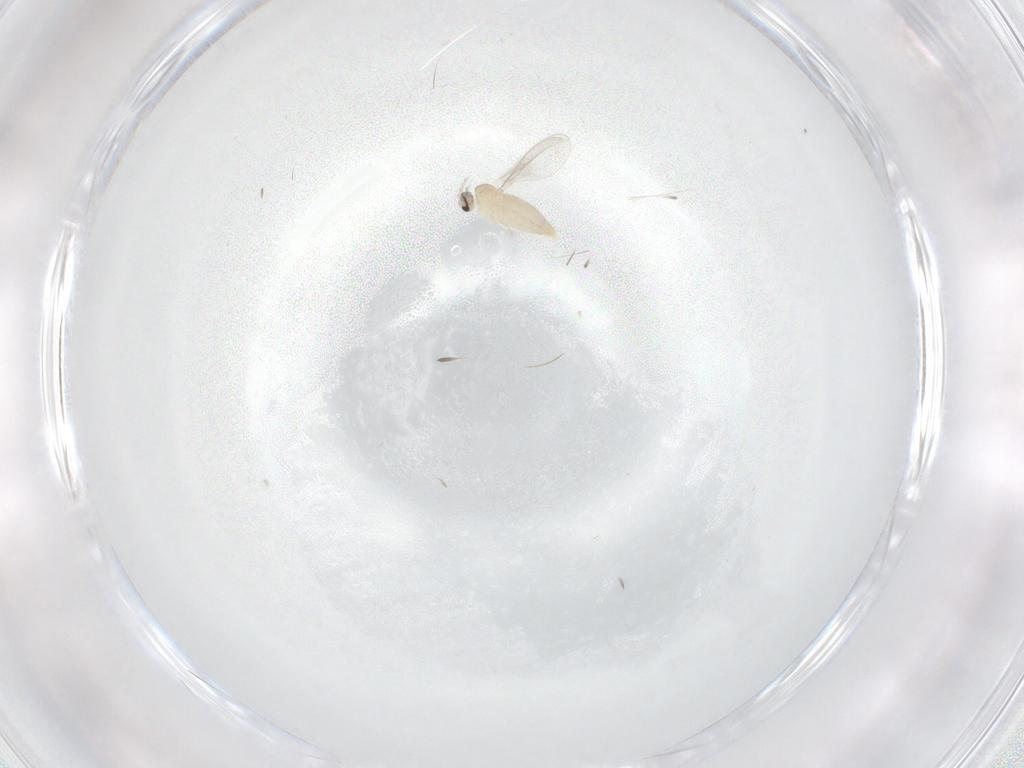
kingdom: Animalia
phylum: Arthropoda
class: Insecta
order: Diptera
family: Cecidomyiidae
